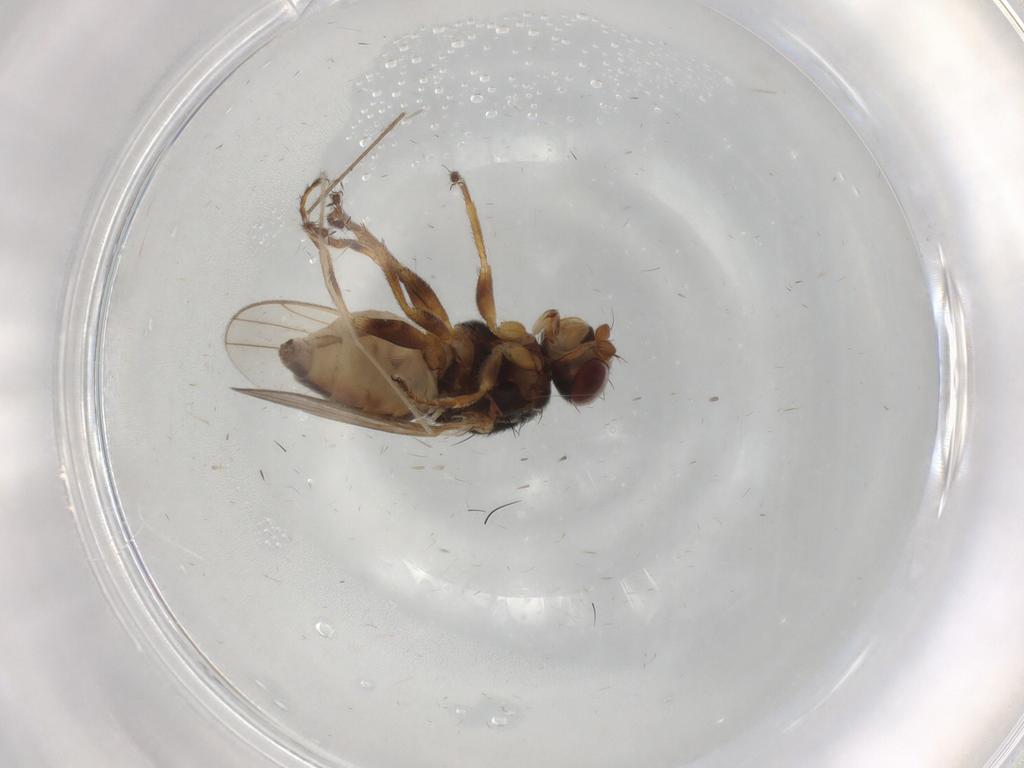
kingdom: Animalia
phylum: Arthropoda
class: Insecta
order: Diptera
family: Chloropidae
